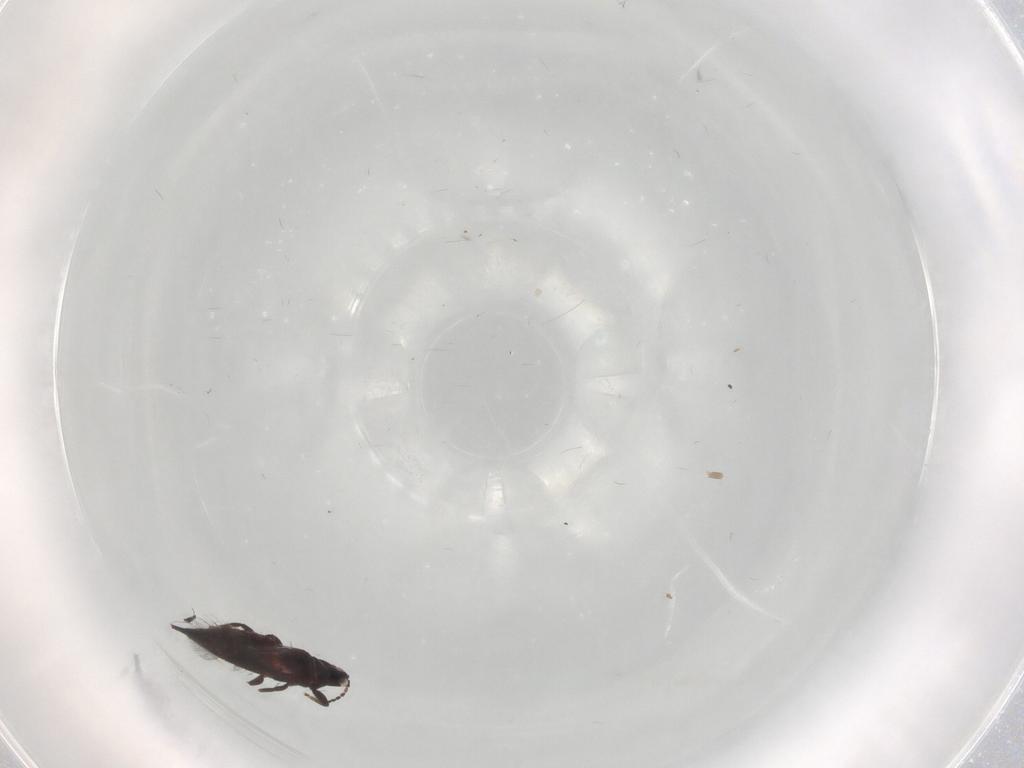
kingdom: Animalia
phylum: Arthropoda
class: Insecta
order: Thysanoptera
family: Phlaeothripidae
